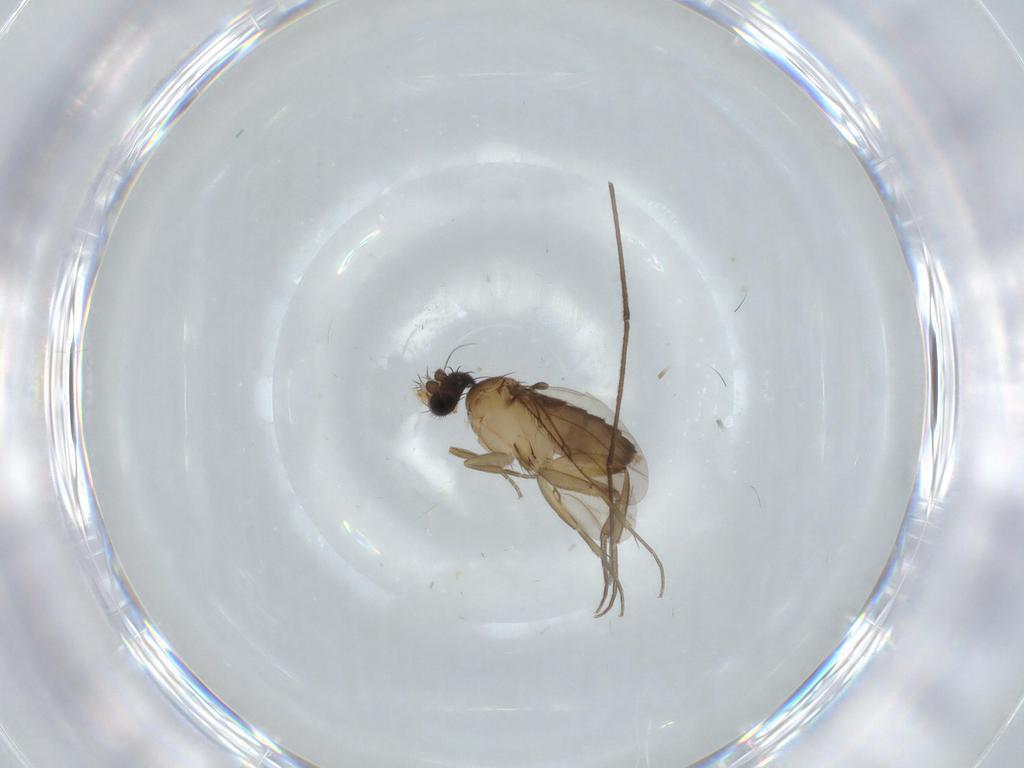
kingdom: Animalia
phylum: Arthropoda
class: Insecta
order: Diptera
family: Phoridae
